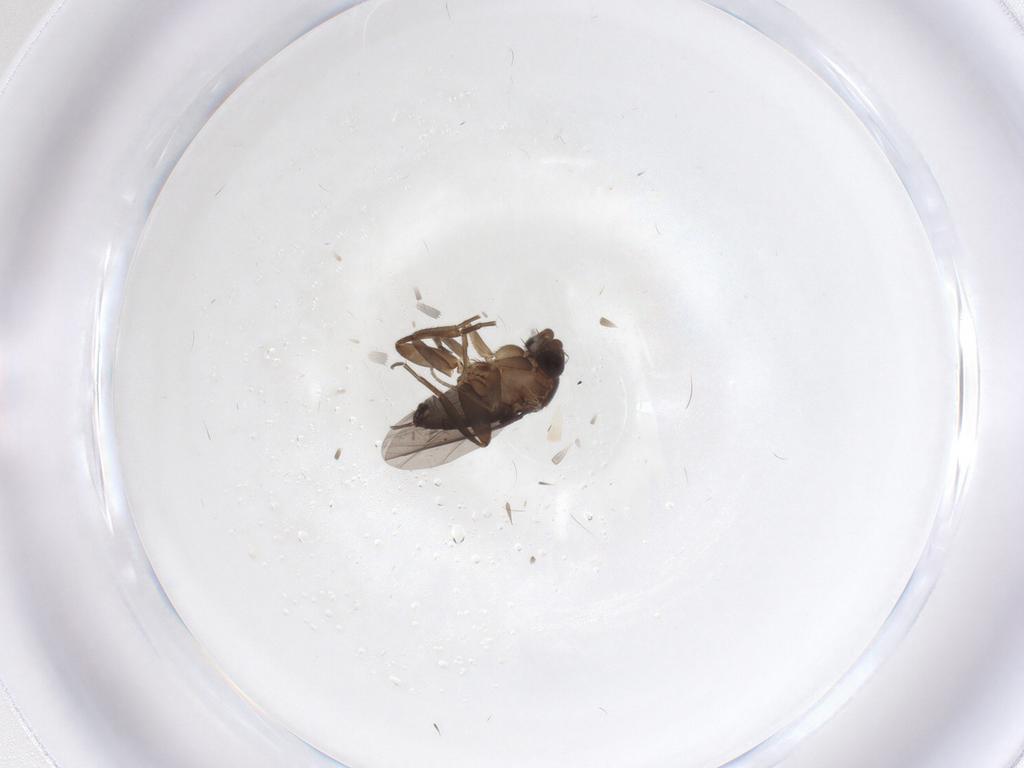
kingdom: Animalia
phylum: Arthropoda
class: Insecta
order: Diptera
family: Phoridae
